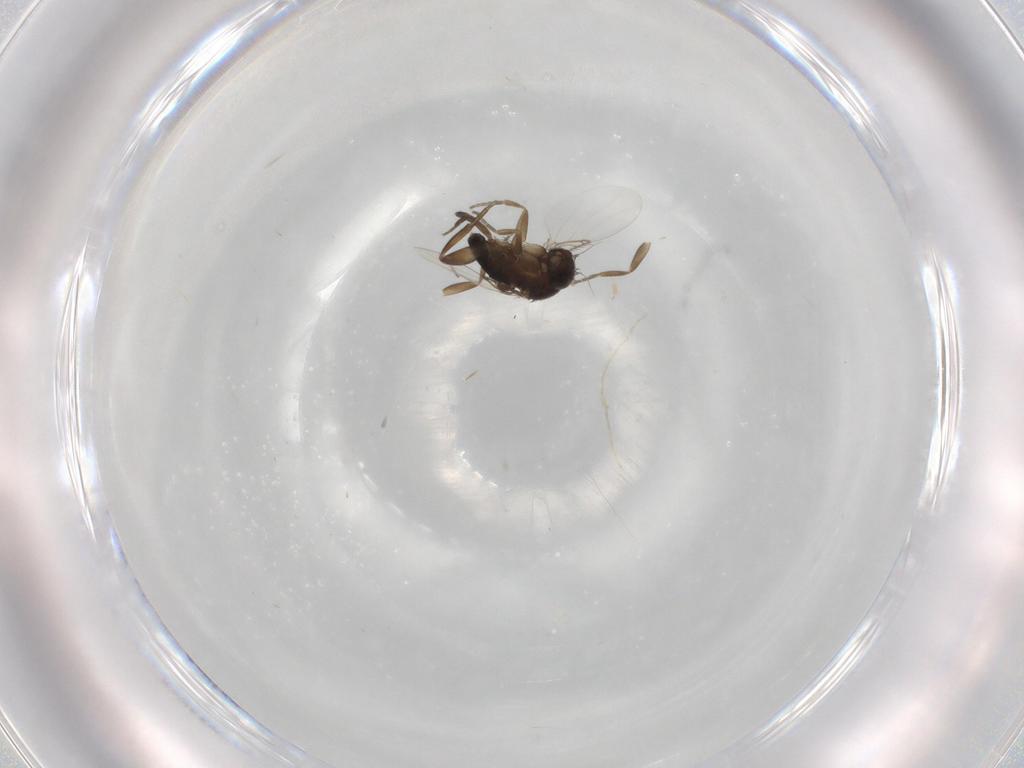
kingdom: Animalia
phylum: Arthropoda
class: Insecta
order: Diptera
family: Phoridae
